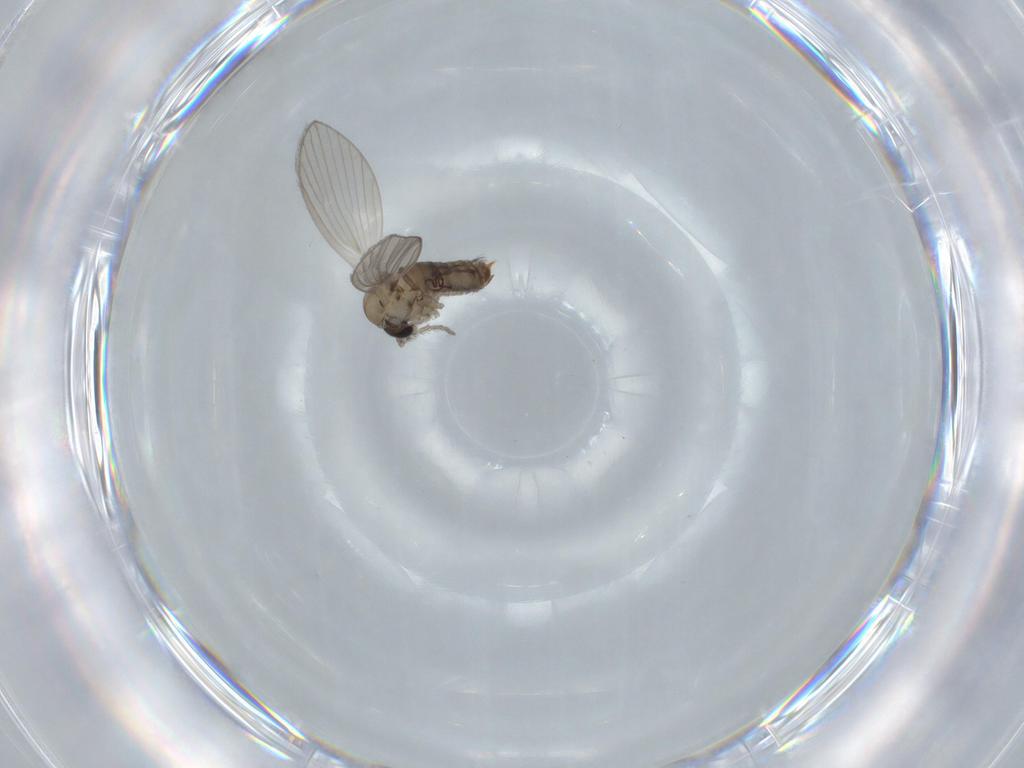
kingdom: Animalia
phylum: Arthropoda
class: Insecta
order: Diptera
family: Psychodidae
